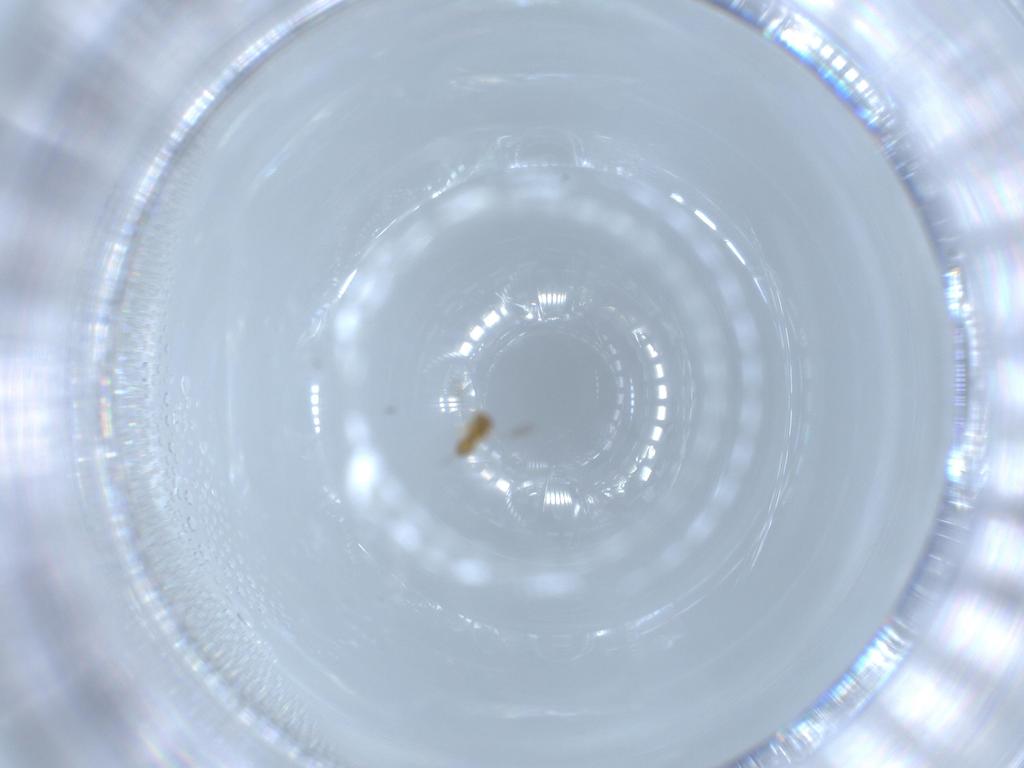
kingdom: Animalia
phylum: Arthropoda
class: Insecta
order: Hymenoptera
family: Platygastridae
